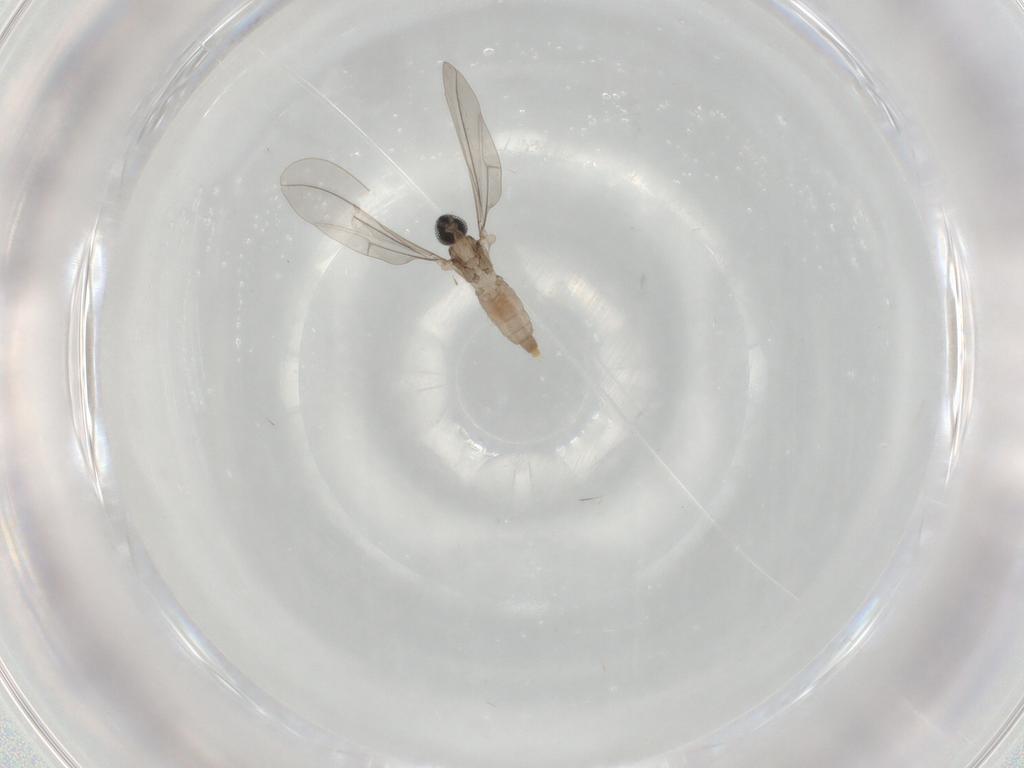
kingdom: Animalia
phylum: Arthropoda
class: Insecta
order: Diptera
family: Cecidomyiidae
